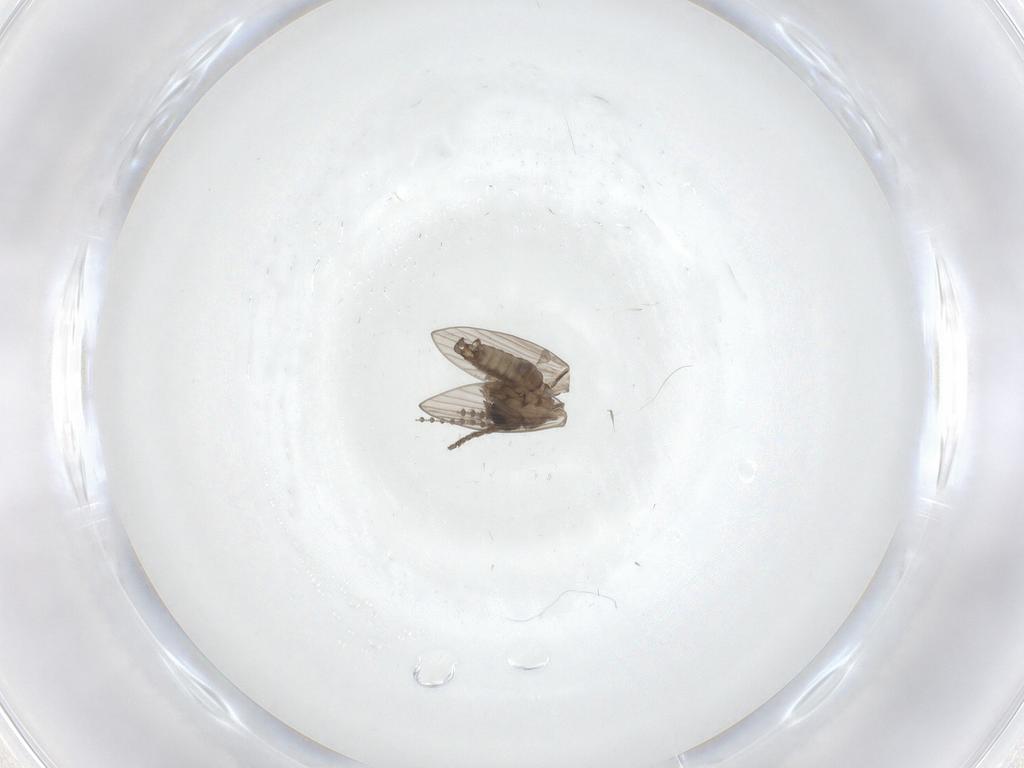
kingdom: Animalia
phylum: Arthropoda
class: Insecta
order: Diptera
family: Psychodidae
